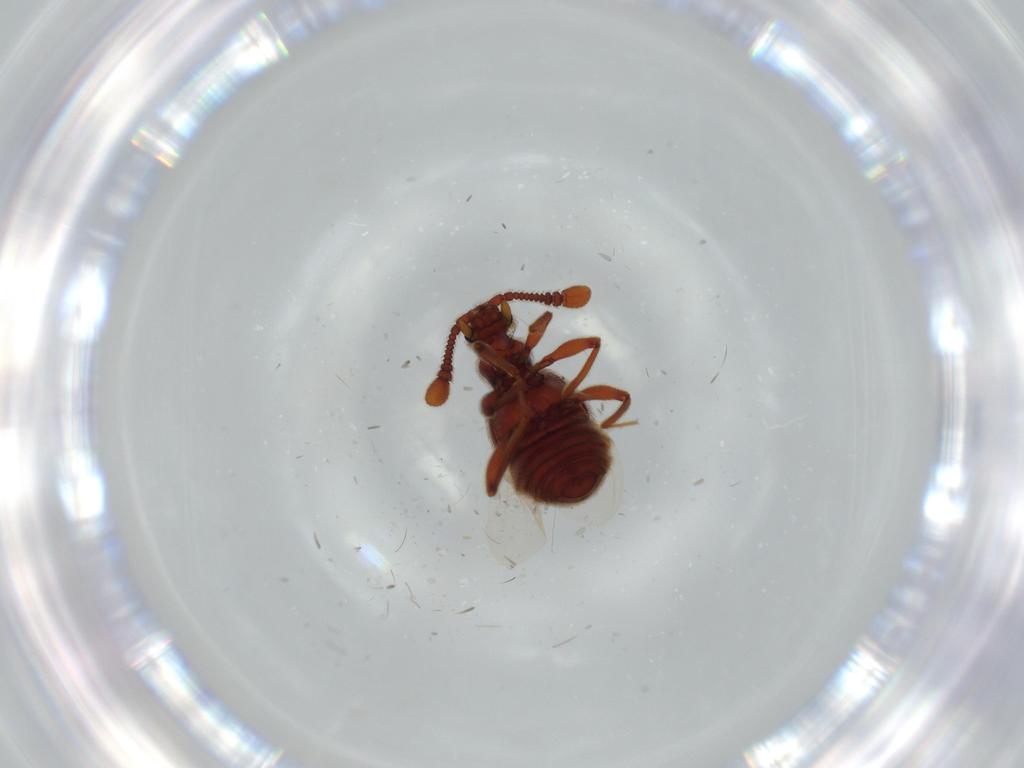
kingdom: Animalia
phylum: Arthropoda
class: Insecta
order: Coleoptera
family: Staphylinidae
